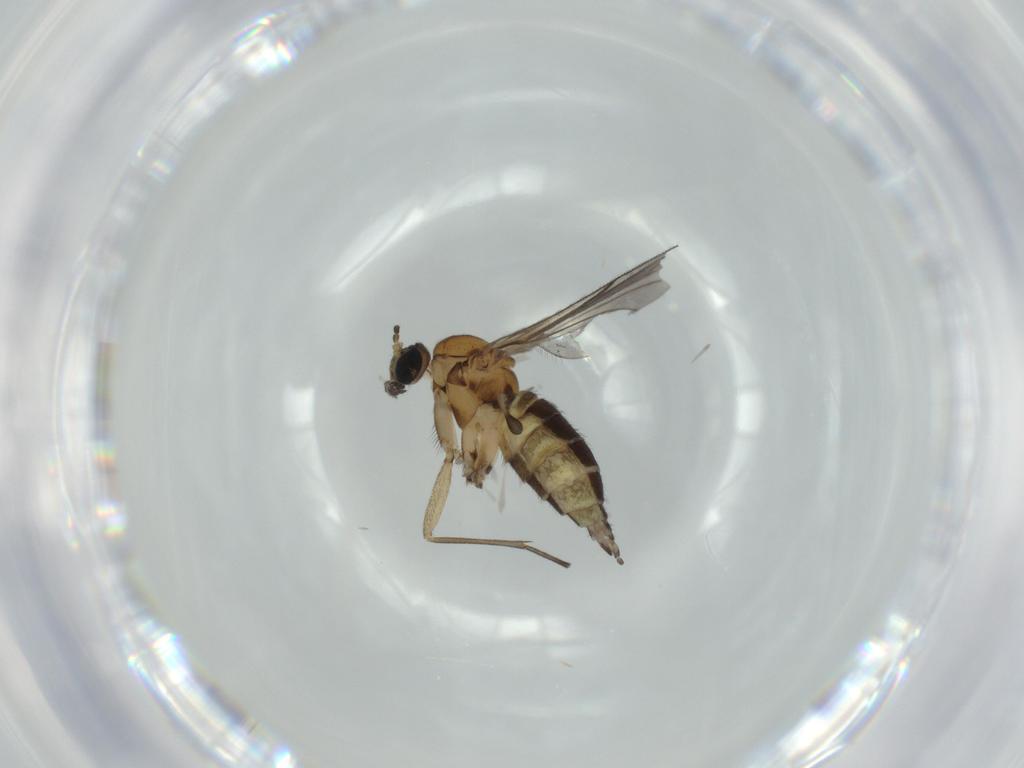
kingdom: Animalia
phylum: Arthropoda
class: Insecta
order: Diptera
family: Sciaridae
